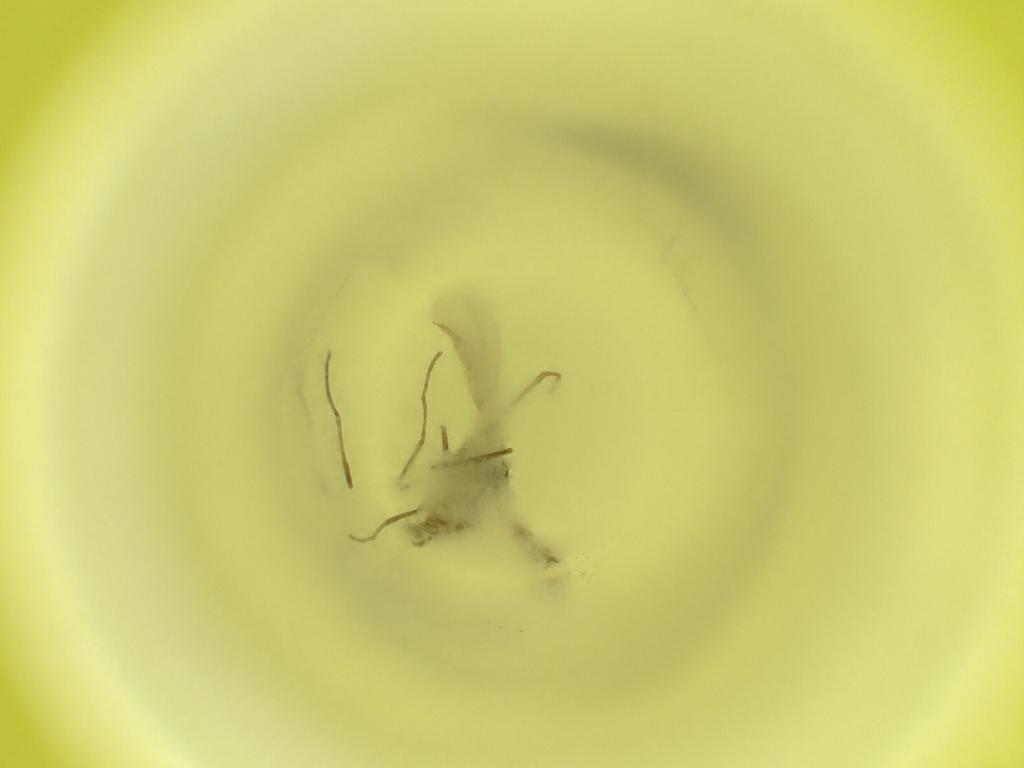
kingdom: Animalia
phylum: Arthropoda
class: Insecta
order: Diptera
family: Cecidomyiidae
